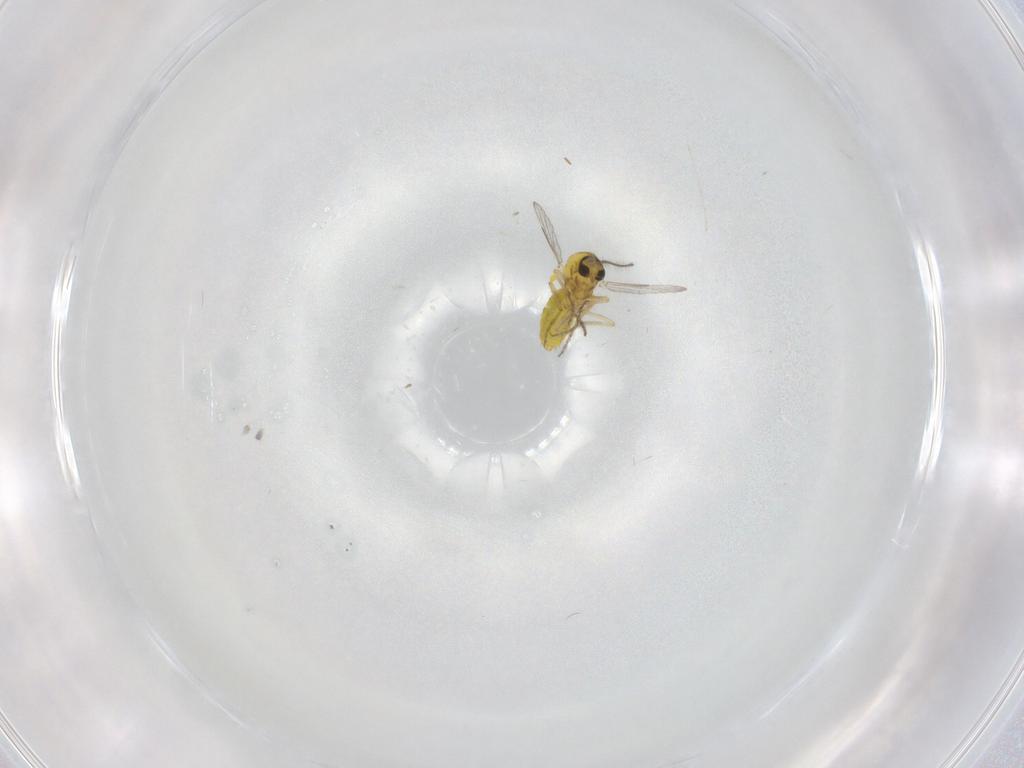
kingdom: Animalia
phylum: Arthropoda
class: Insecta
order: Diptera
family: Ceratopogonidae
